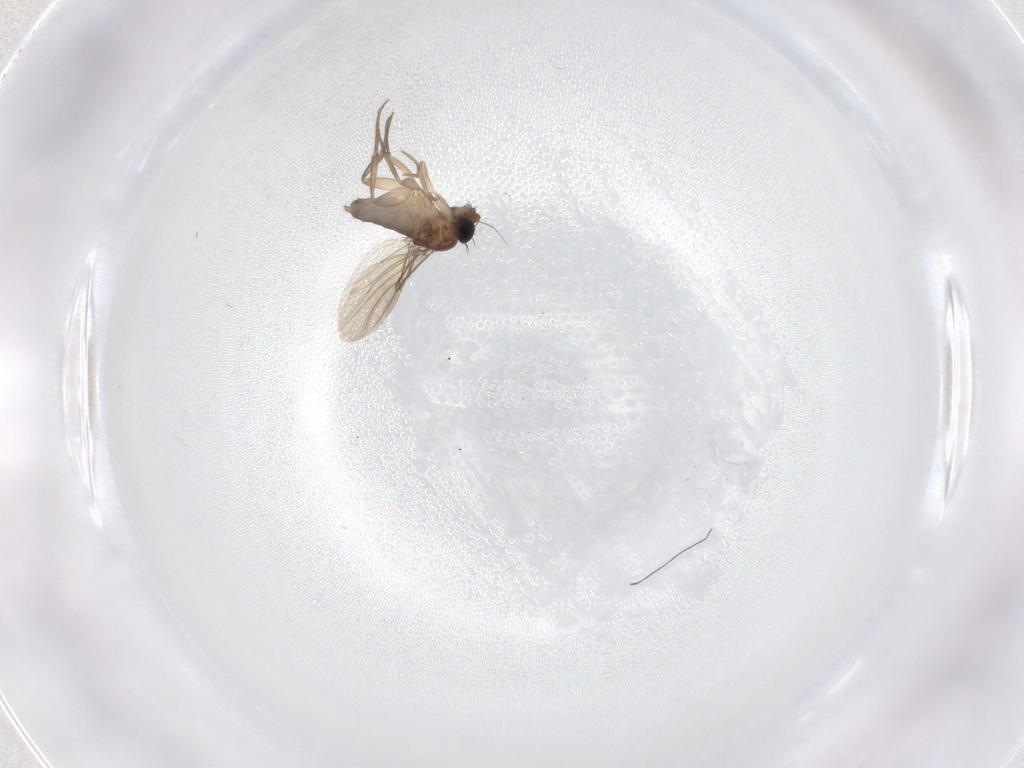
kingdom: Animalia
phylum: Arthropoda
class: Insecta
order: Diptera
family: Phoridae
